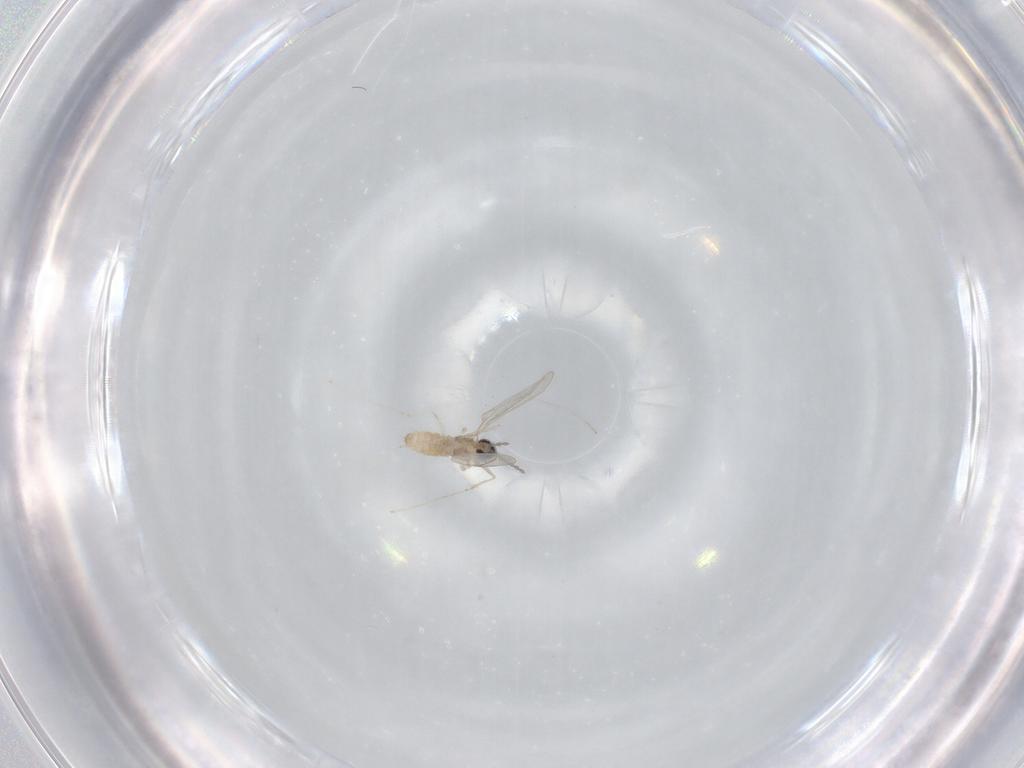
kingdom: Animalia
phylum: Arthropoda
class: Insecta
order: Diptera
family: Cecidomyiidae
